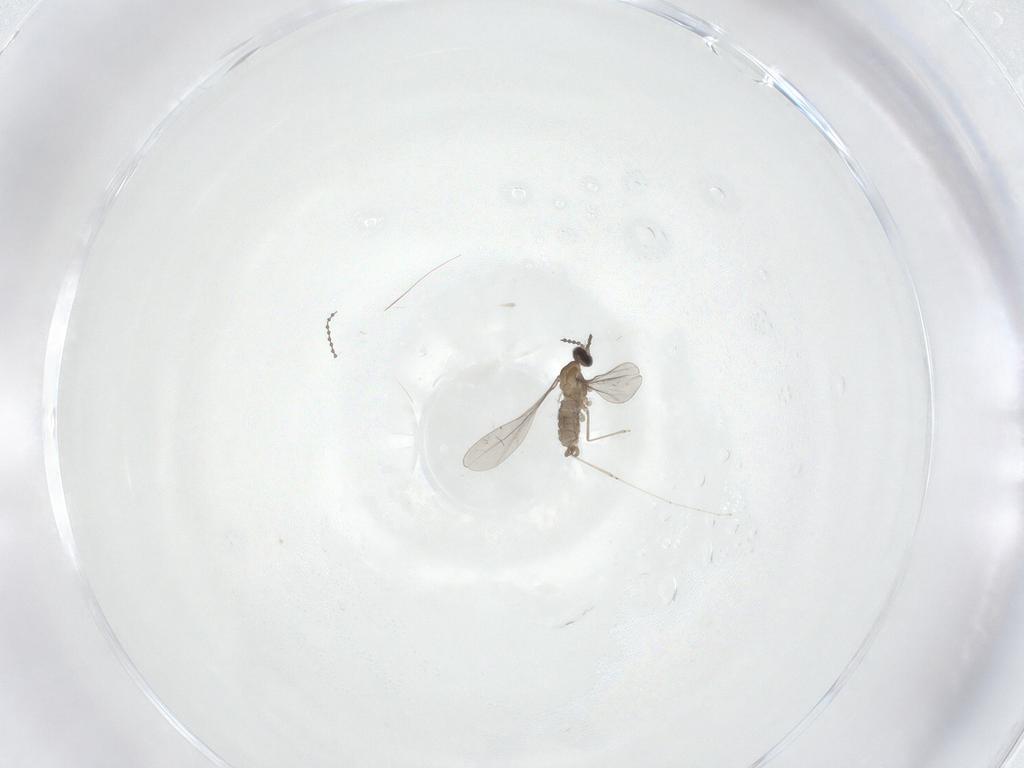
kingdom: Animalia
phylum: Arthropoda
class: Insecta
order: Diptera
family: Cecidomyiidae
